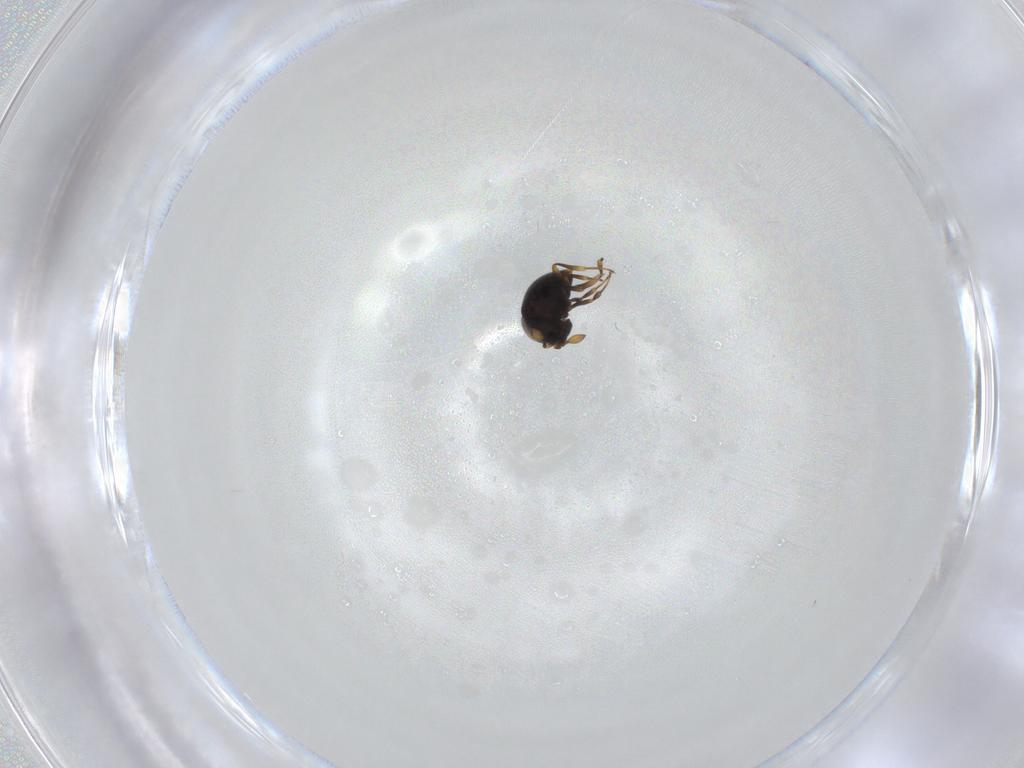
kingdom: Animalia
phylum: Arthropoda
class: Insecta
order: Hymenoptera
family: Scelionidae
